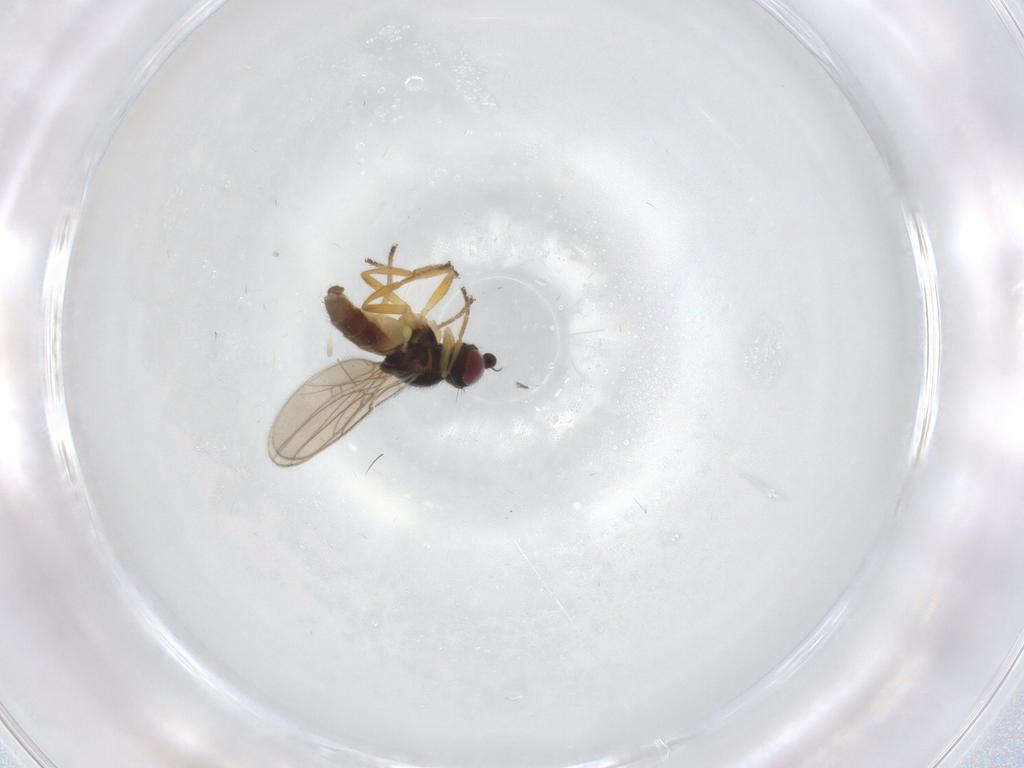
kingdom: Animalia
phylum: Arthropoda
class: Insecta
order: Diptera
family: Chloropidae
